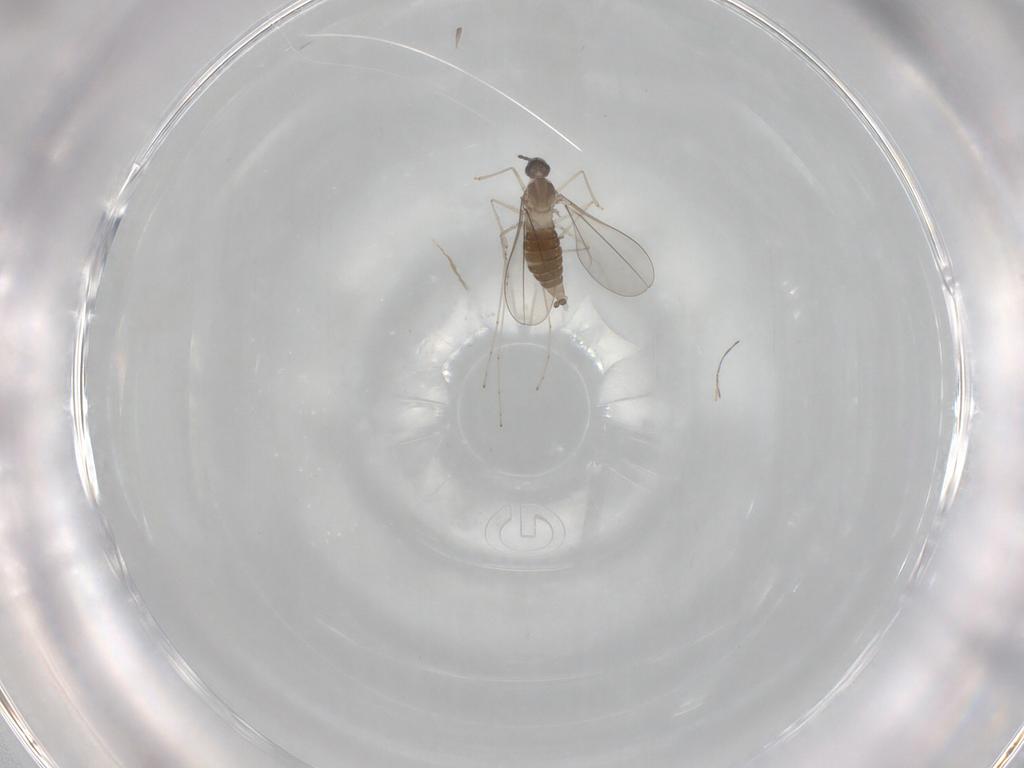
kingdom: Animalia
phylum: Arthropoda
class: Insecta
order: Diptera
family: Cecidomyiidae
